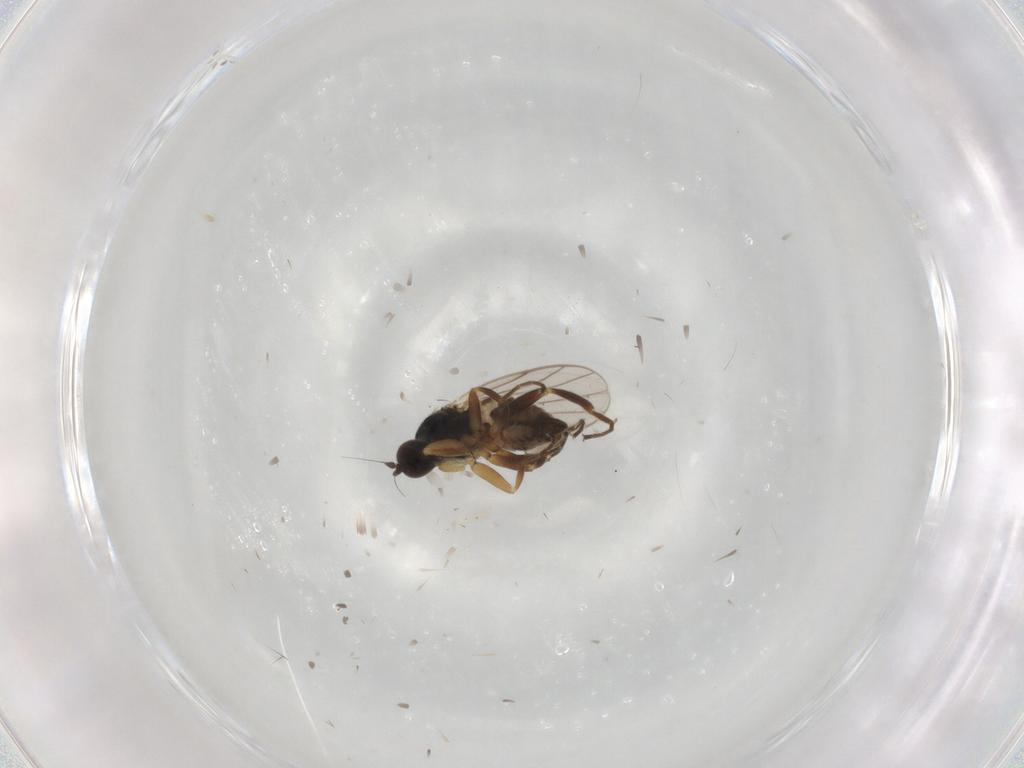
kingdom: Animalia
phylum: Arthropoda
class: Insecta
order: Diptera
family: Hybotidae
